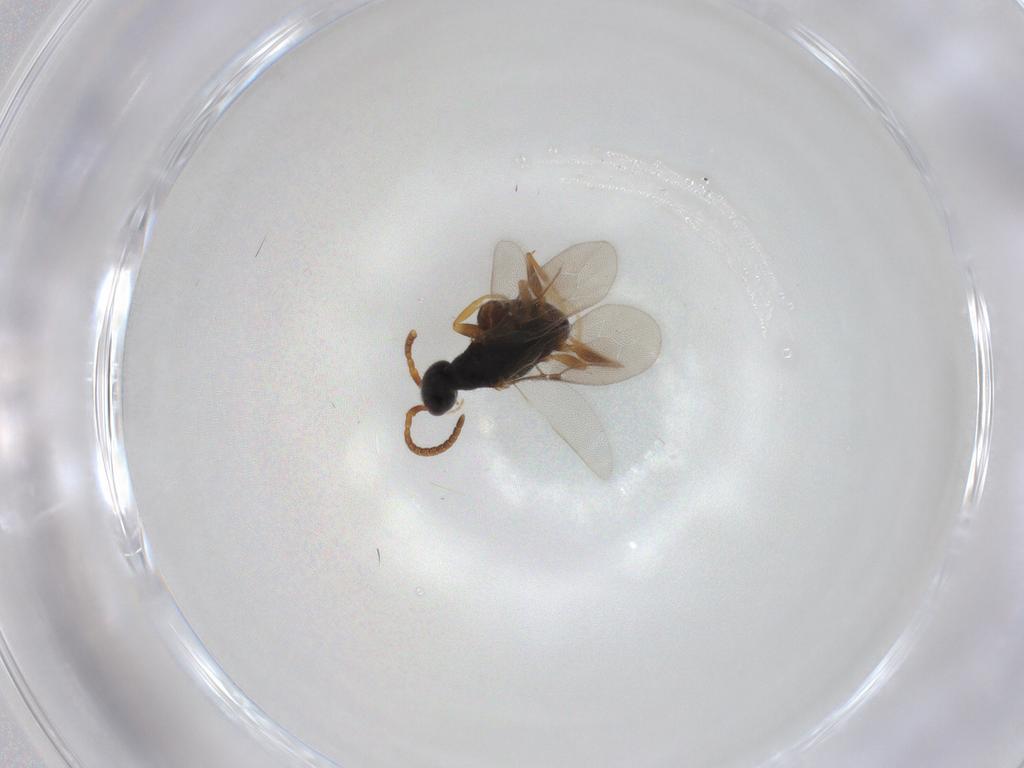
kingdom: Animalia
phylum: Arthropoda
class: Insecta
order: Hymenoptera
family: Bethylidae
